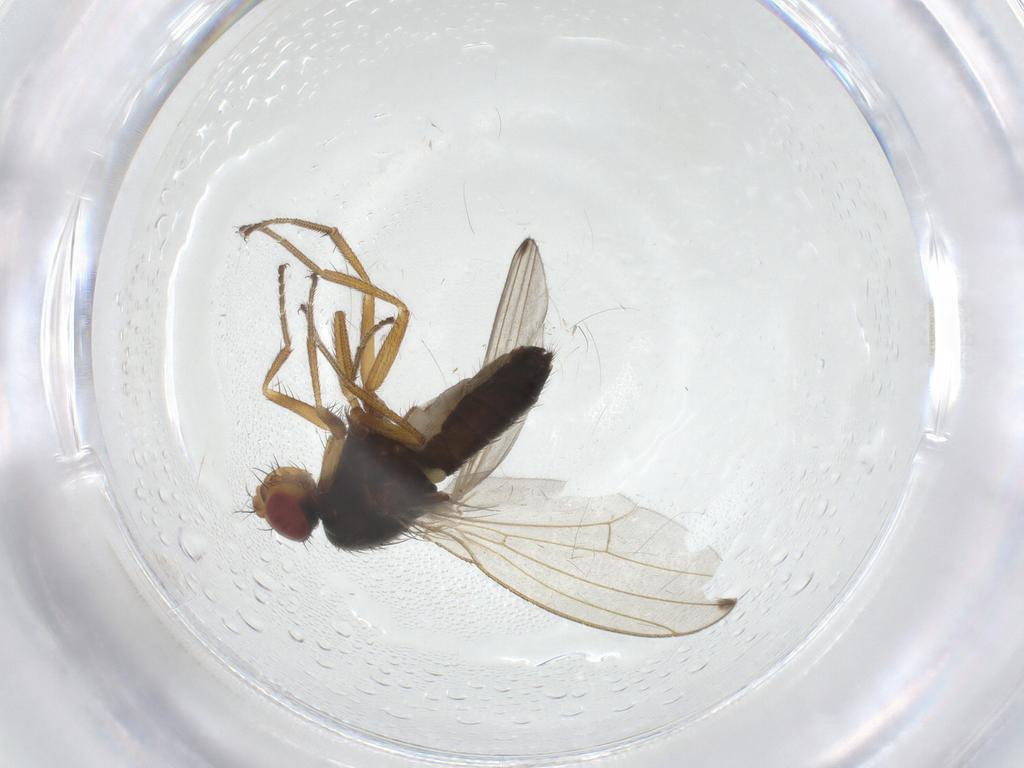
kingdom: Animalia
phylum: Arthropoda
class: Insecta
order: Diptera
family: Drosophilidae
